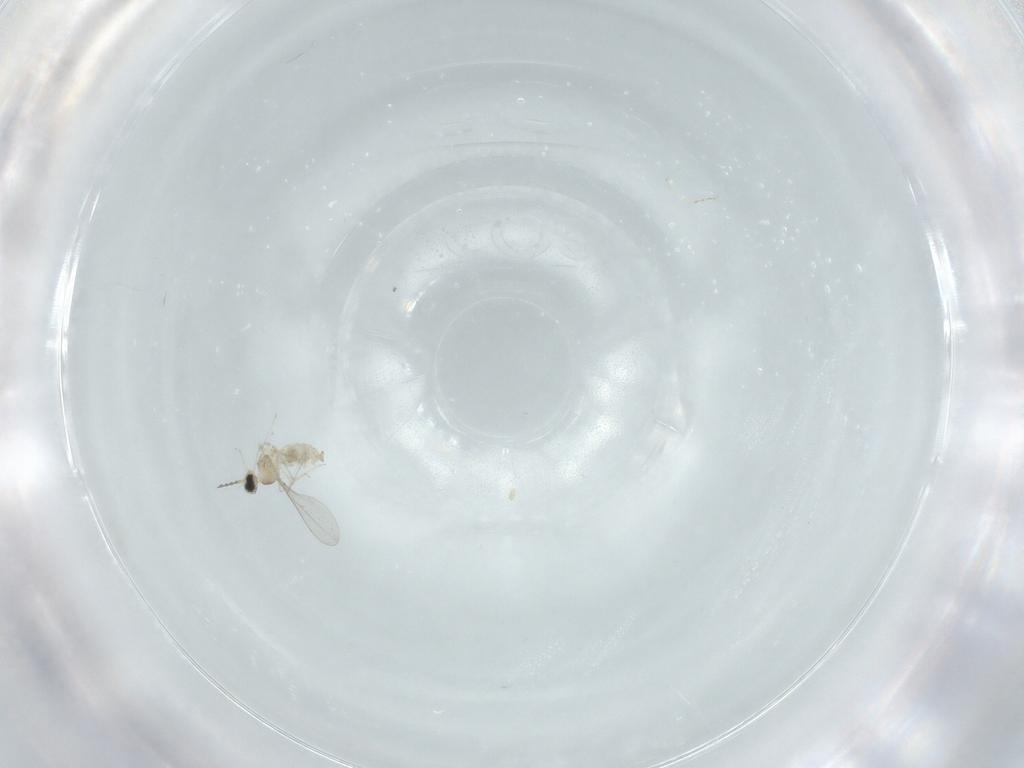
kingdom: Animalia
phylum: Arthropoda
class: Insecta
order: Diptera
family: Cecidomyiidae
